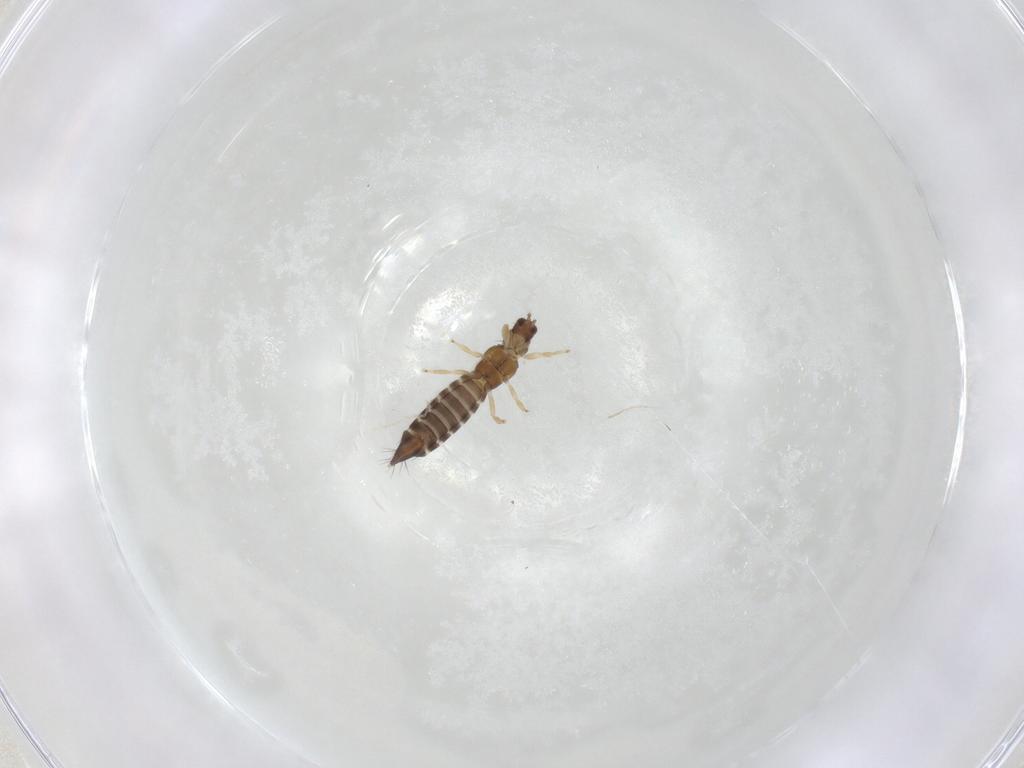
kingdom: Animalia
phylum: Arthropoda
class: Insecta
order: Thysanoptera
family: Thripidae
